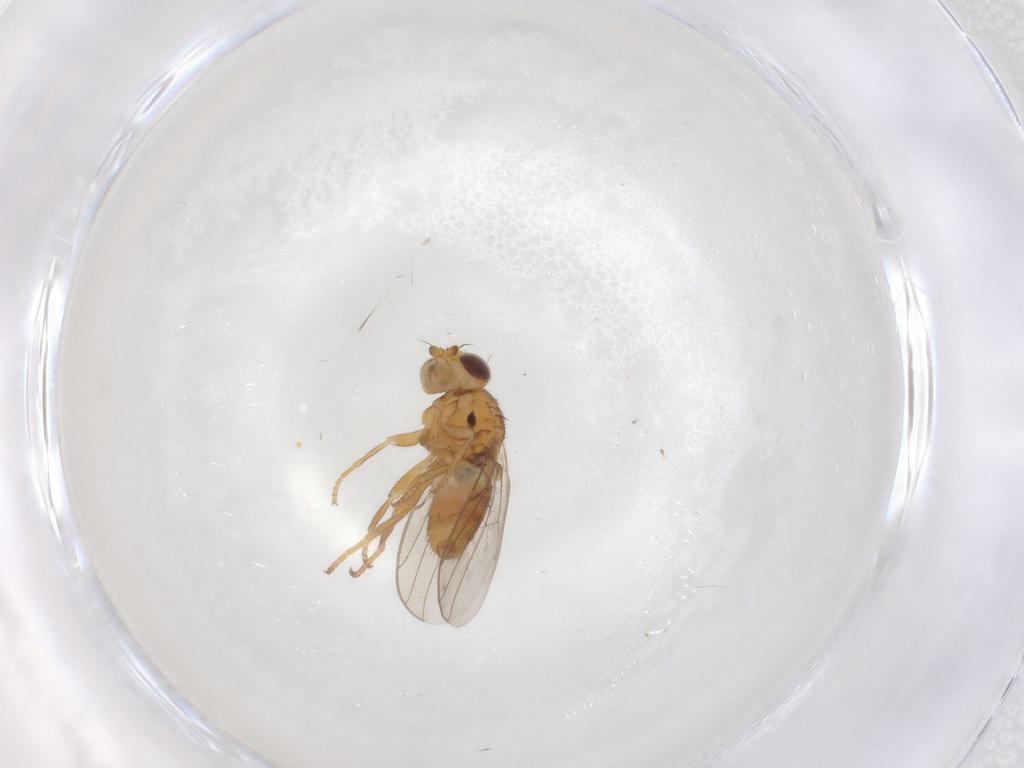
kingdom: Animalia
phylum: Arthropoda
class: Insecta
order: Diptera
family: Chloropidae
